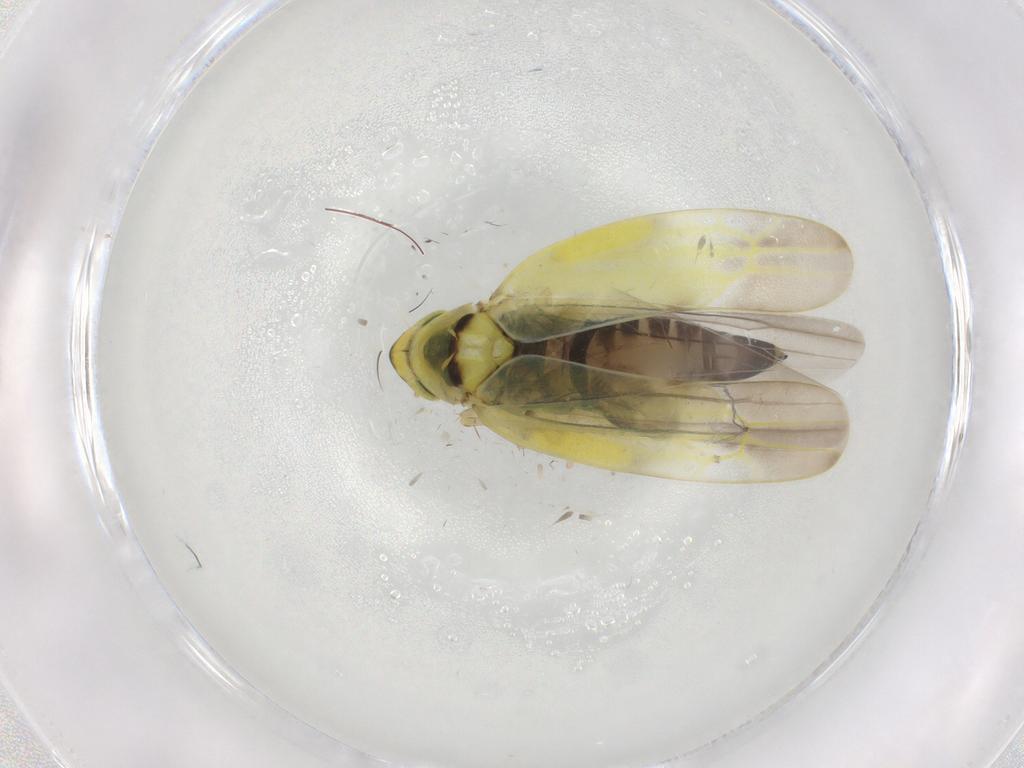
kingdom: Animalia
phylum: Arthropoda
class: Insecta
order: Hemiptera
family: Cicadellidae
